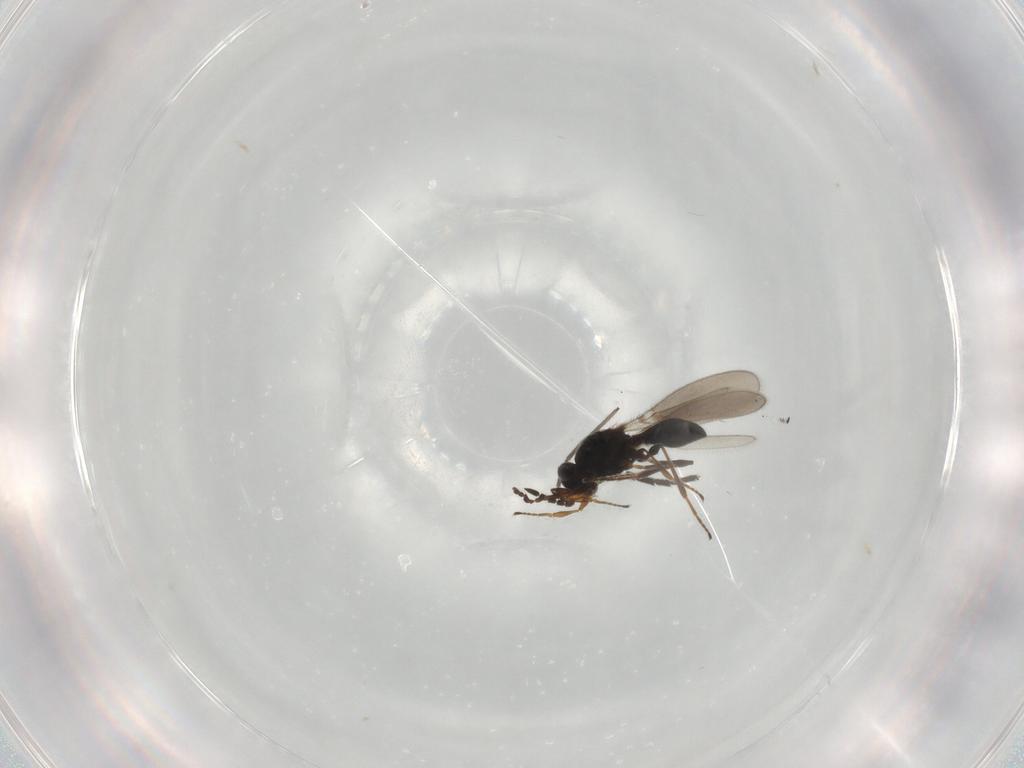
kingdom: Animalia
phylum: Arthropoda
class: Insecta
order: Hymenoptera
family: Platygastridae
